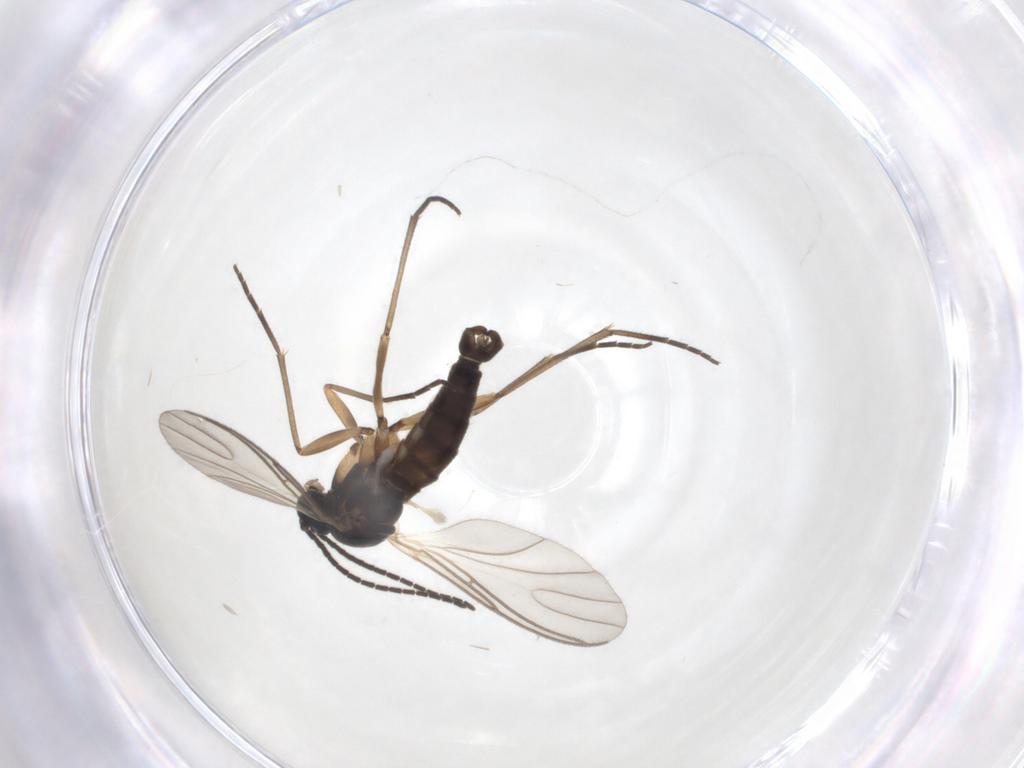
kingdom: Animalia
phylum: Arthropoda
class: Insecta
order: Diptera
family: Sciaridae
